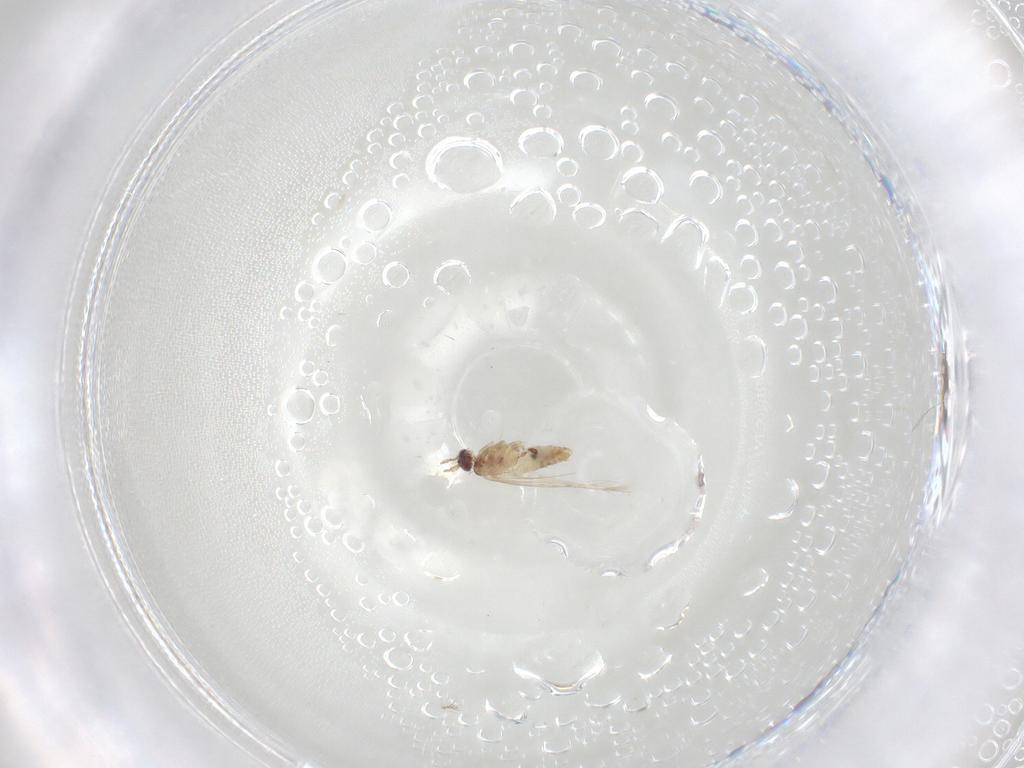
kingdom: Animalia
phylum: Arthropoda
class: Insecta
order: Lepidoptera
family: Nepticulidae
